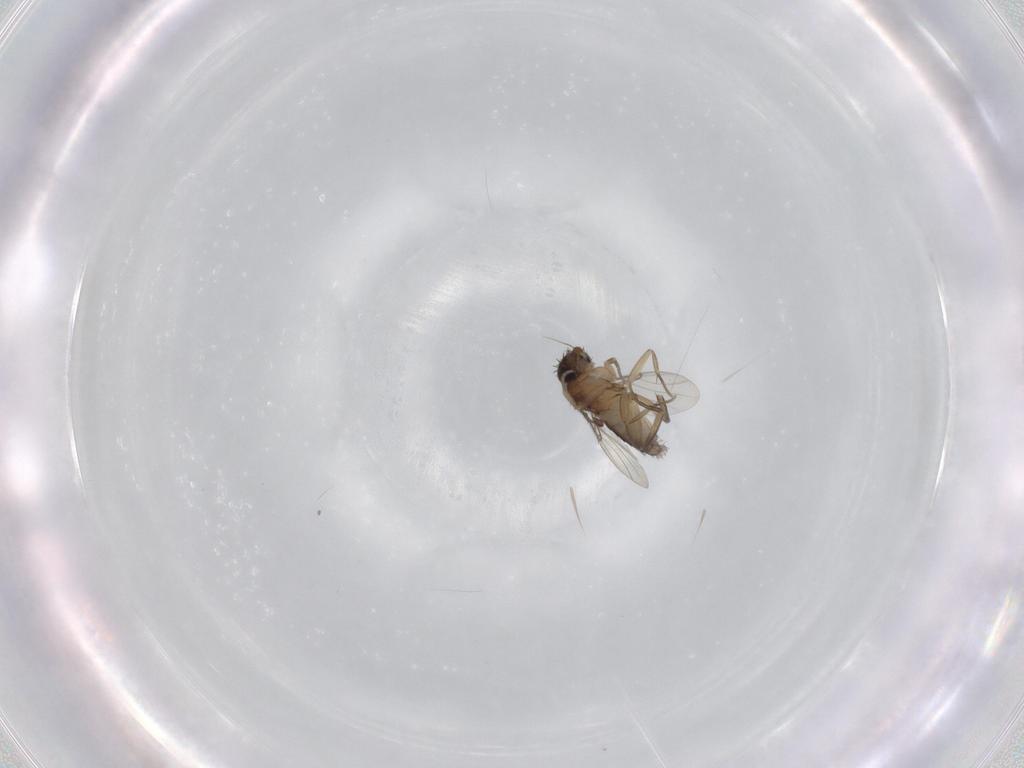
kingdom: Animalia
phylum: Arthropoda
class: Insecta
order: Diptera
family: Phoridae
